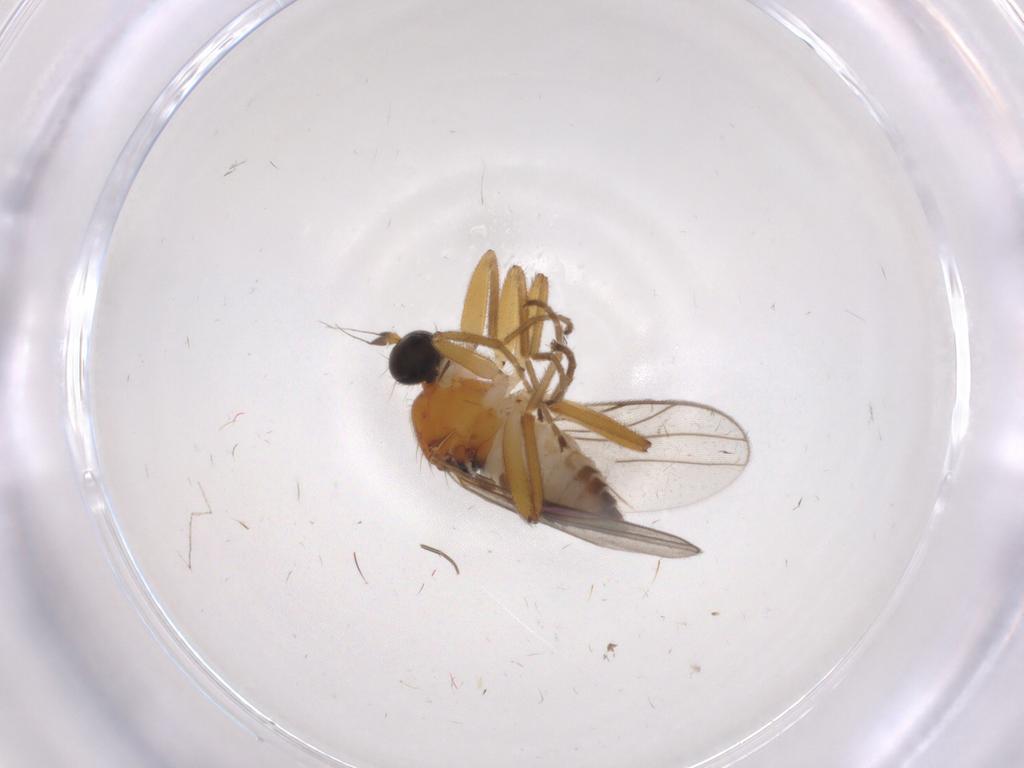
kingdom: Animalia
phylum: Arthropoda
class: Insecta
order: Diptera
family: Hybotidae
